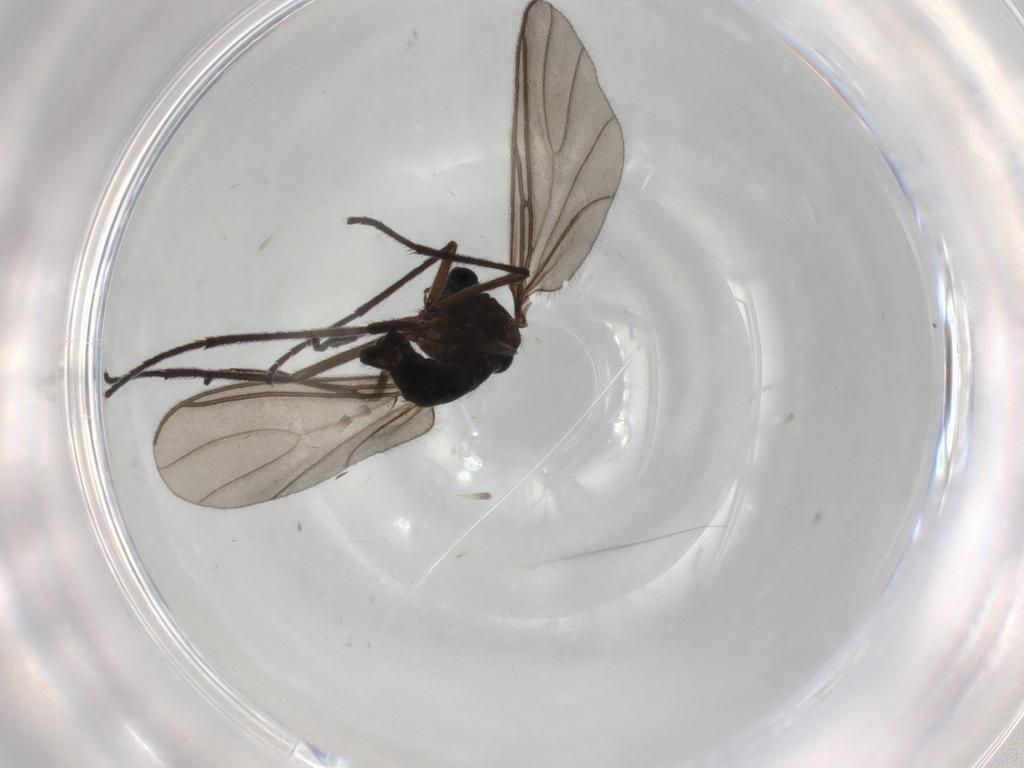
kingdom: Animalia
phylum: Arthropoda
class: Insecta
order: Diptera
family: Sciaridae
